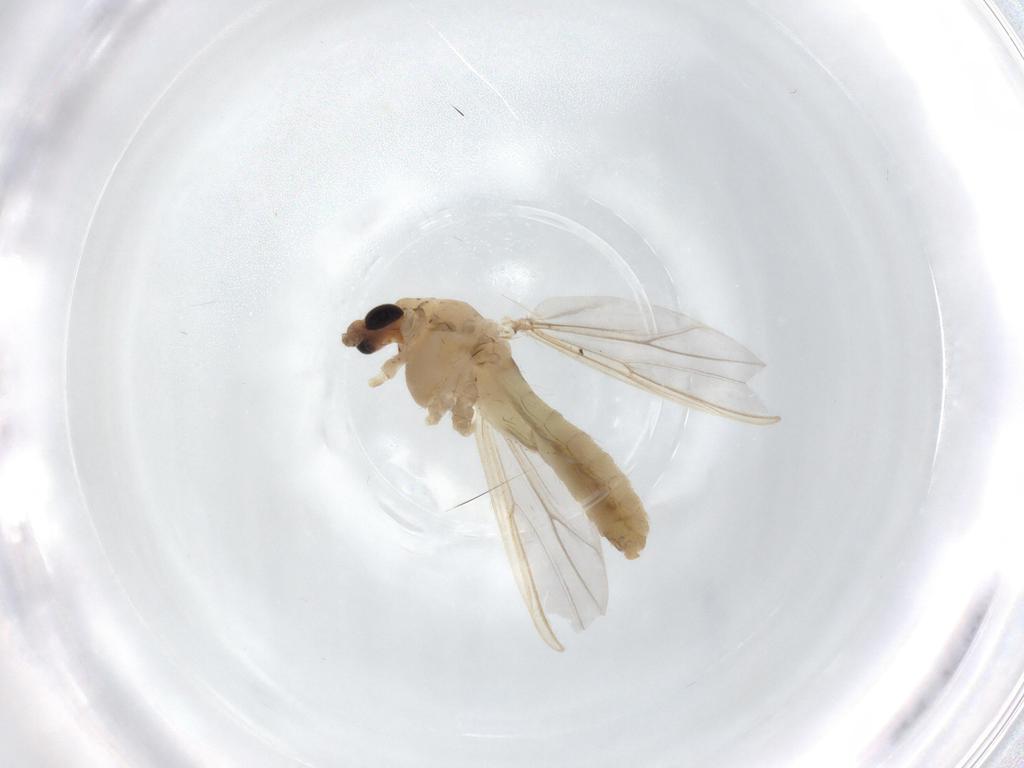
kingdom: Animalia
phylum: Arthropoda
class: Insecta
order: Diptera
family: Chironomidae
